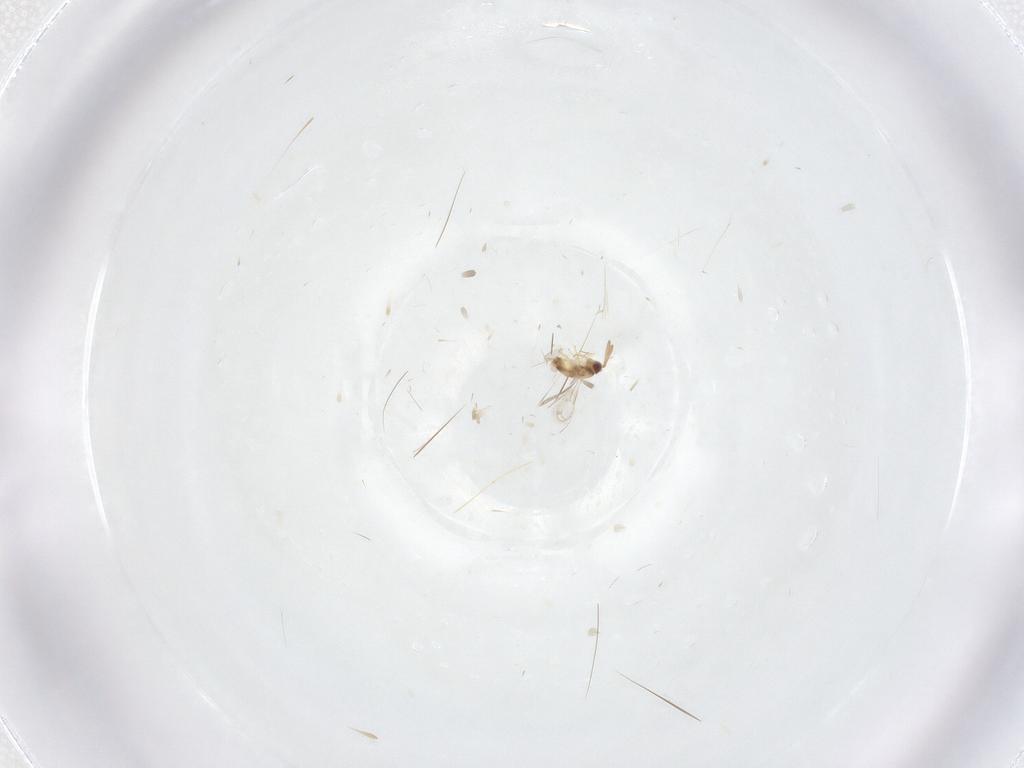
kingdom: Animalia
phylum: Arthropoda
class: Insecta
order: Hymenoptera
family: Aphelinidae
